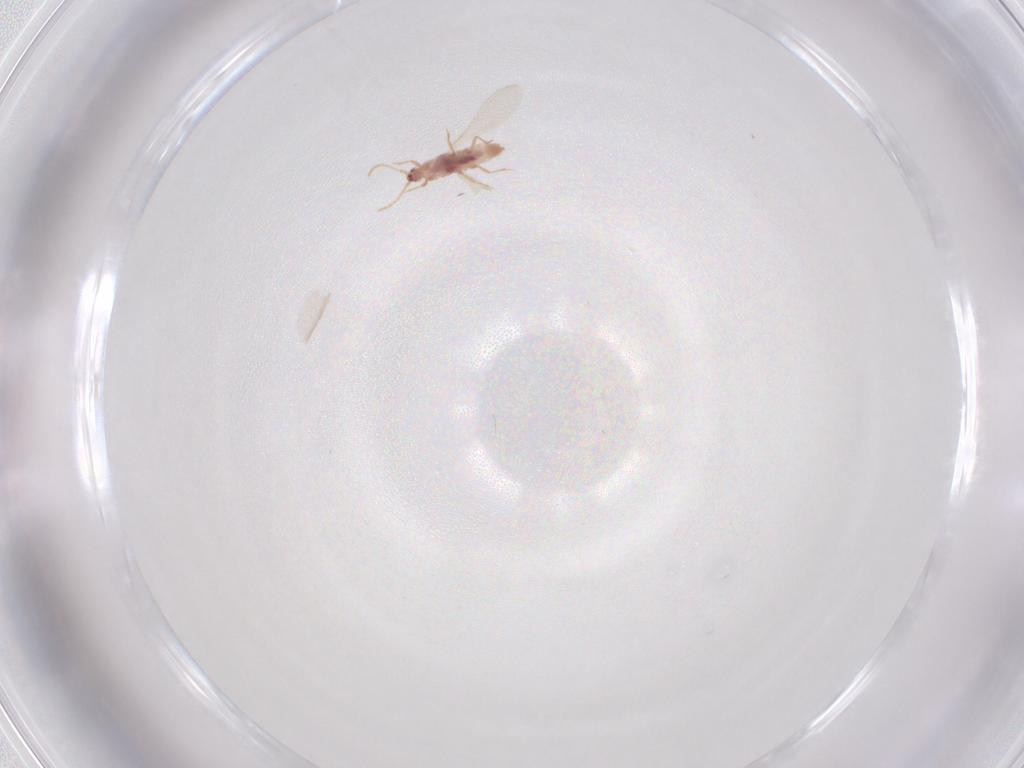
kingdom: Animalia
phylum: Arthropoda
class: Insecta
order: Hemiptera
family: Pseudococcidae
